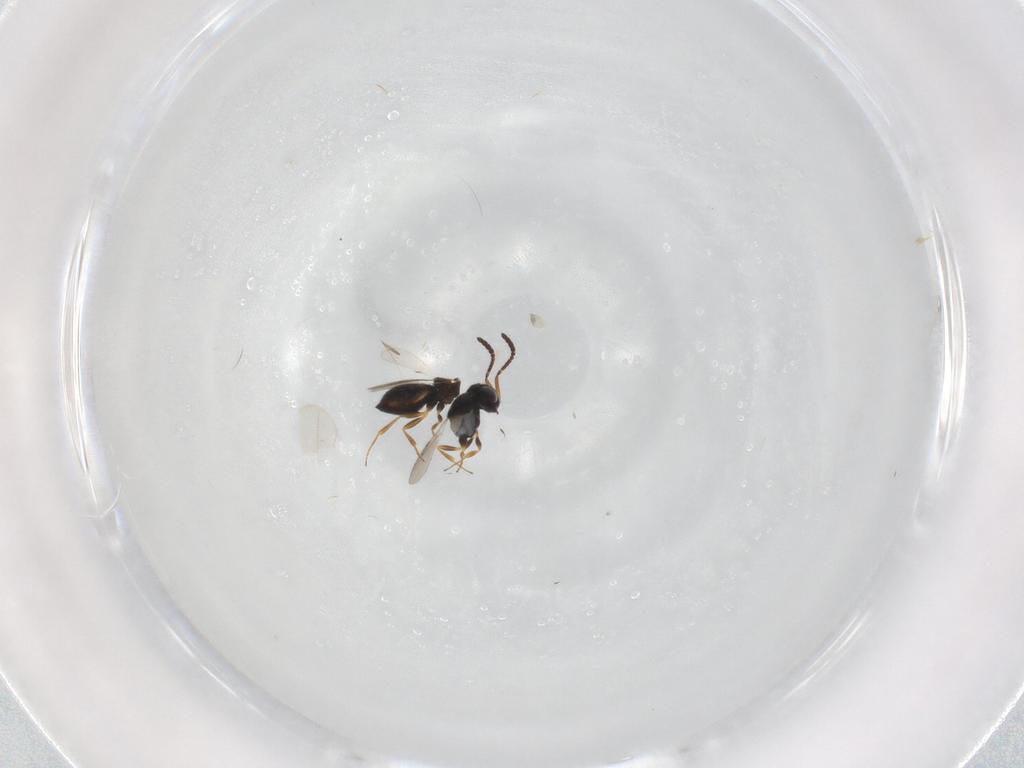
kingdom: Animalia
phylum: Arthropoda
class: Insecta
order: Hymenoptera
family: Scelionidae
